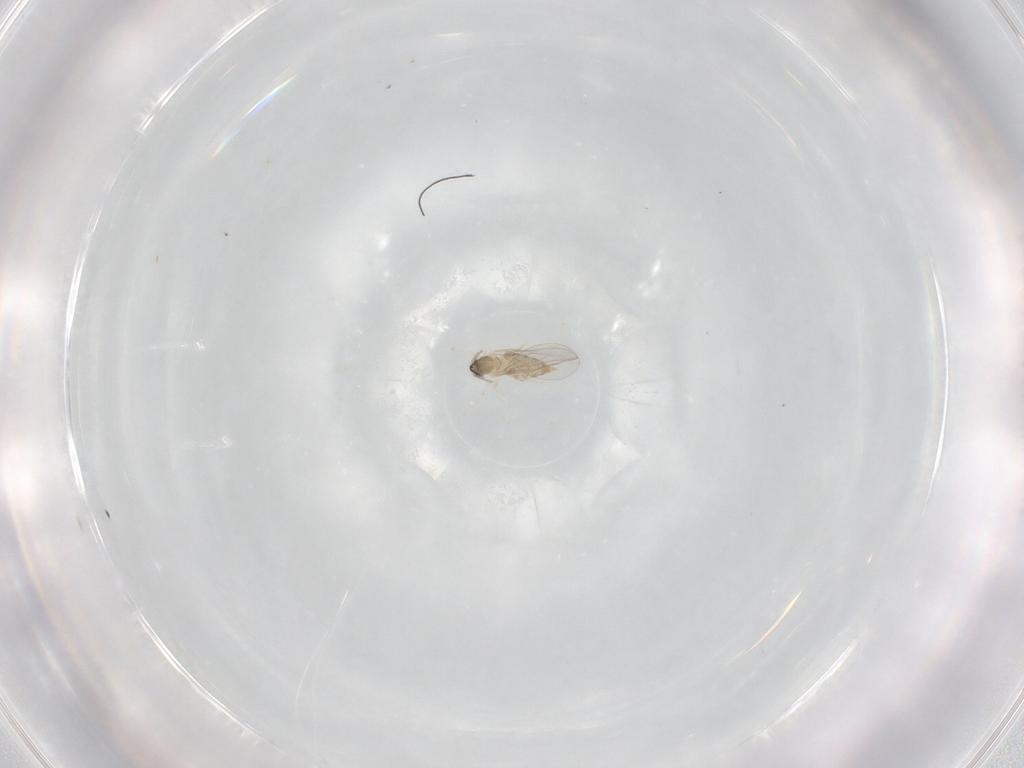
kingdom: Animalia
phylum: Arthropoda
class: Insecta
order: Diptera
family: Cecidomyiidae
